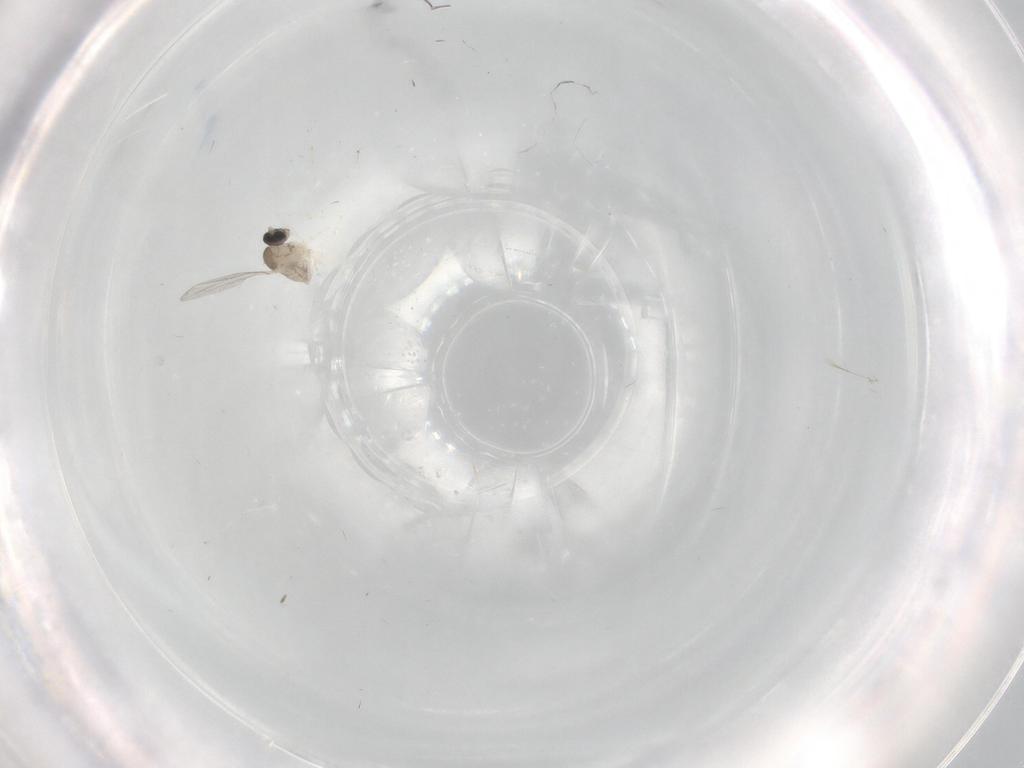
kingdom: Animalia
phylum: Arthropoda
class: Insecta
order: Diptera
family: Cecidomyiidae
